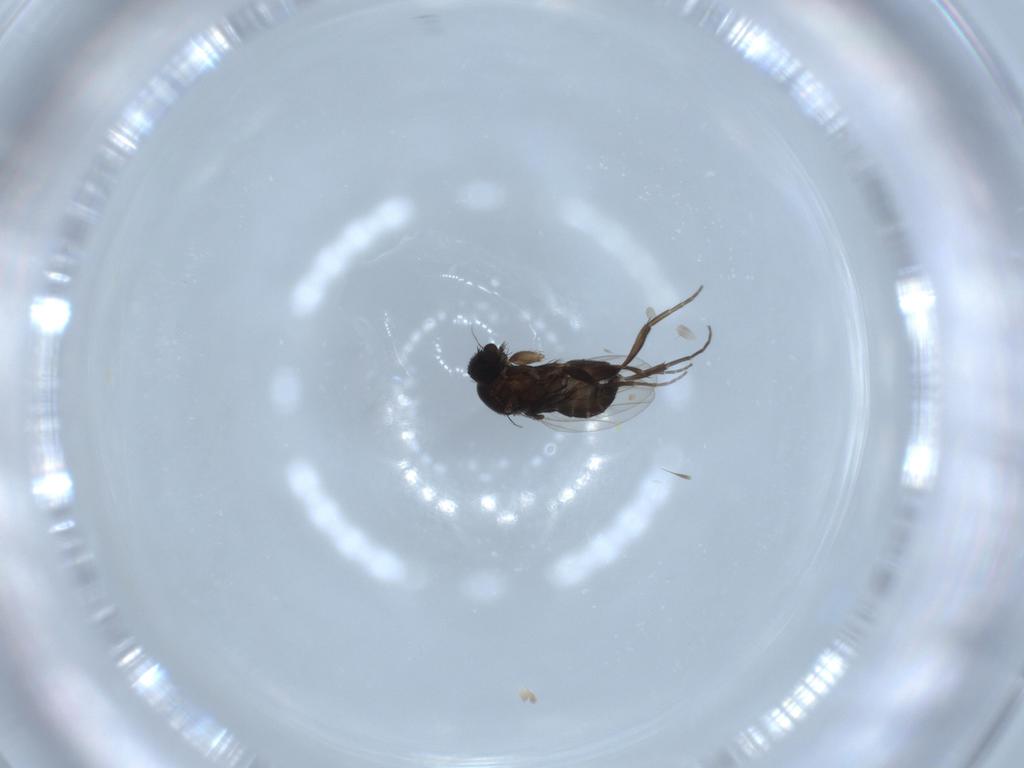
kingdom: Animalia
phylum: Arthropoda
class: Insecta
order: Diptera
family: Phoridae
